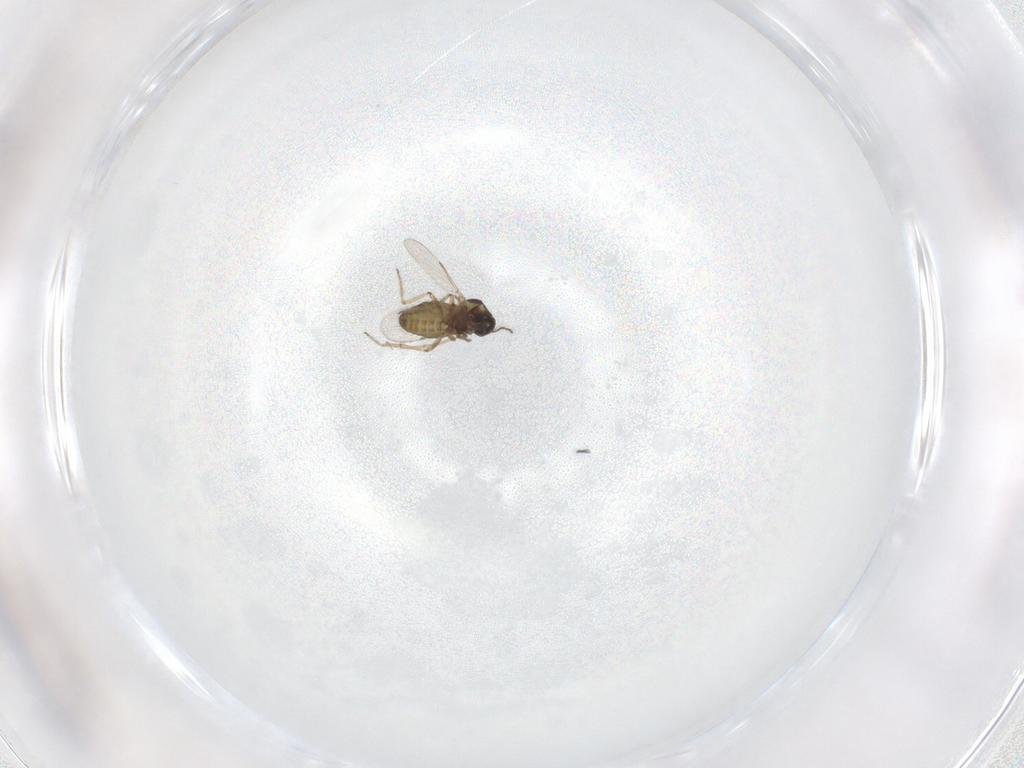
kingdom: Animalia
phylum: Arthropoda
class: Insecta
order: Diptera
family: Ceratopogonidae
